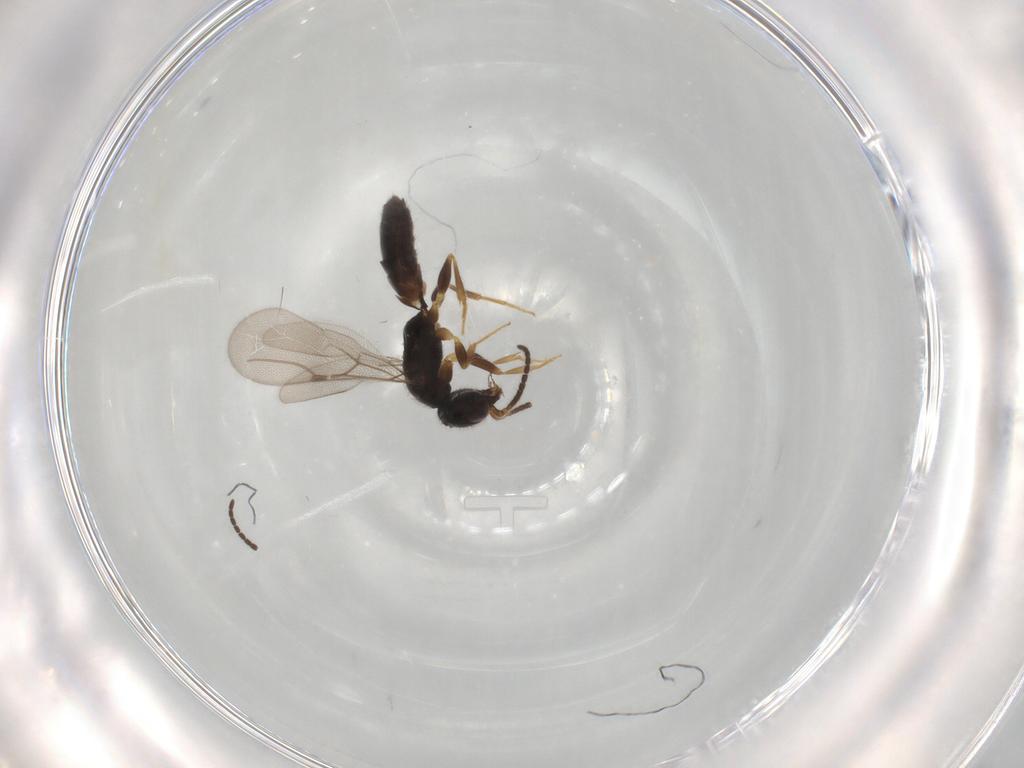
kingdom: Animalia
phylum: Arthropoda
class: Insecta
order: Hymenoptera
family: Bethylidae
